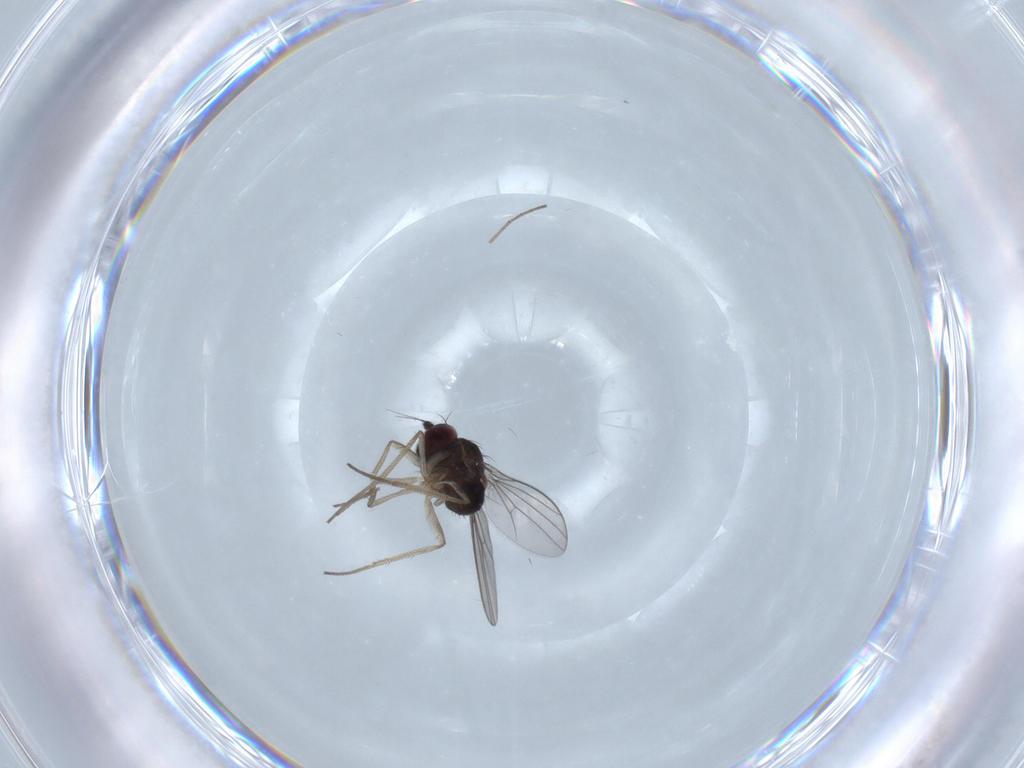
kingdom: Animalia
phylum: Arthropoda
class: Insecta
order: Diptera
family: Dolichopodidae
